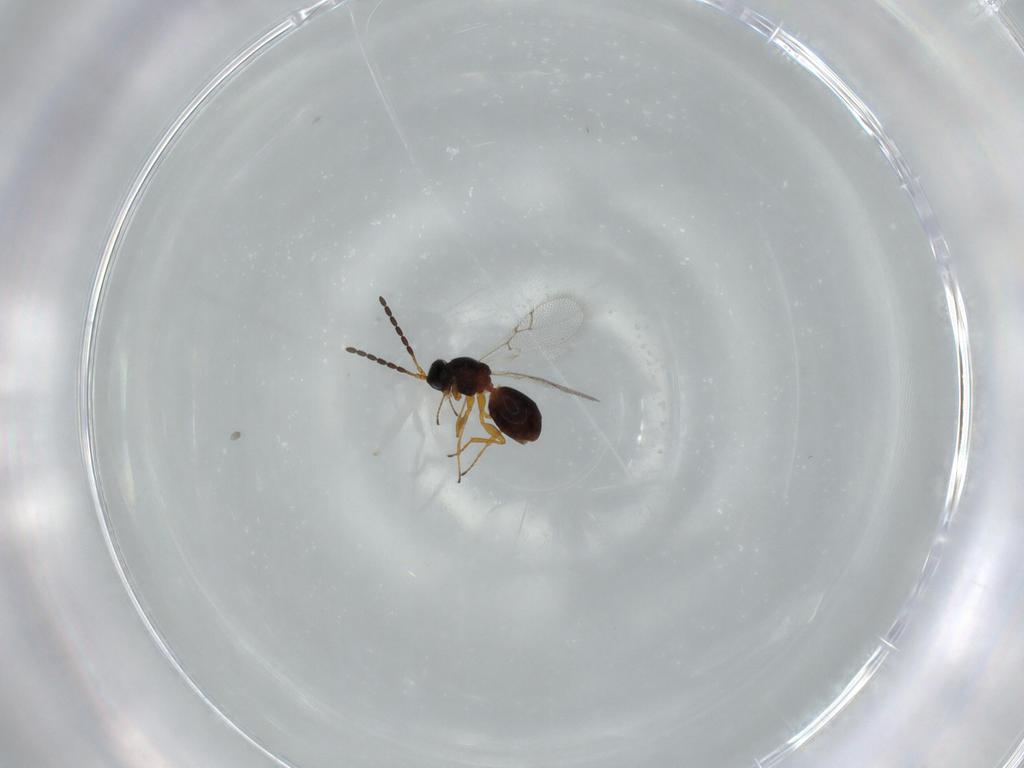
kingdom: Animalia
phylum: Arthropoda
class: Insecta
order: Hymenoptera
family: Figitidae
